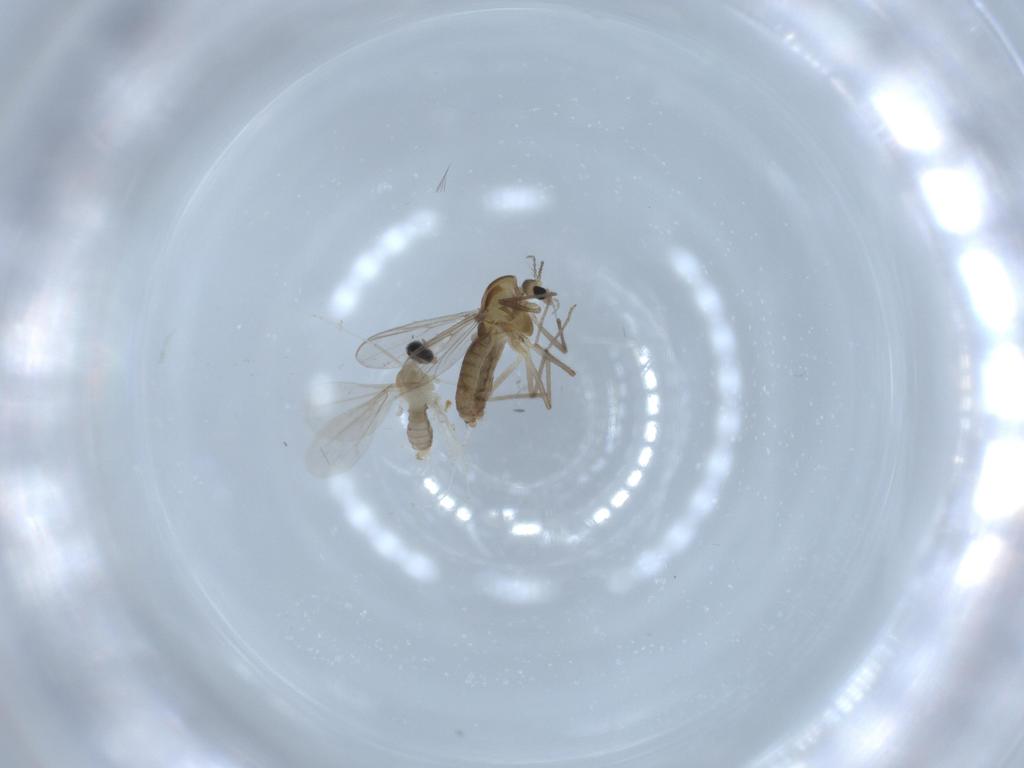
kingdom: Animalia
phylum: Arthropoda
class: Insecta
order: Diptera
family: Chironomidae
